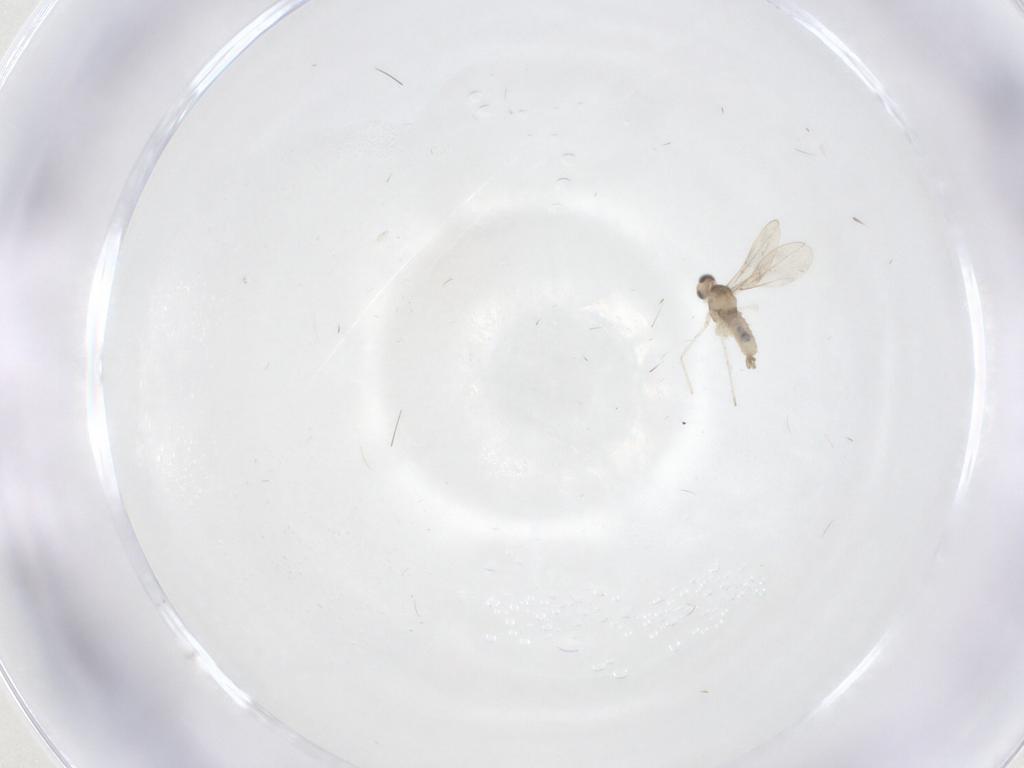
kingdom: Animalia
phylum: Arthropoda
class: Insecta
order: Diptera
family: Cecidomyiidae
